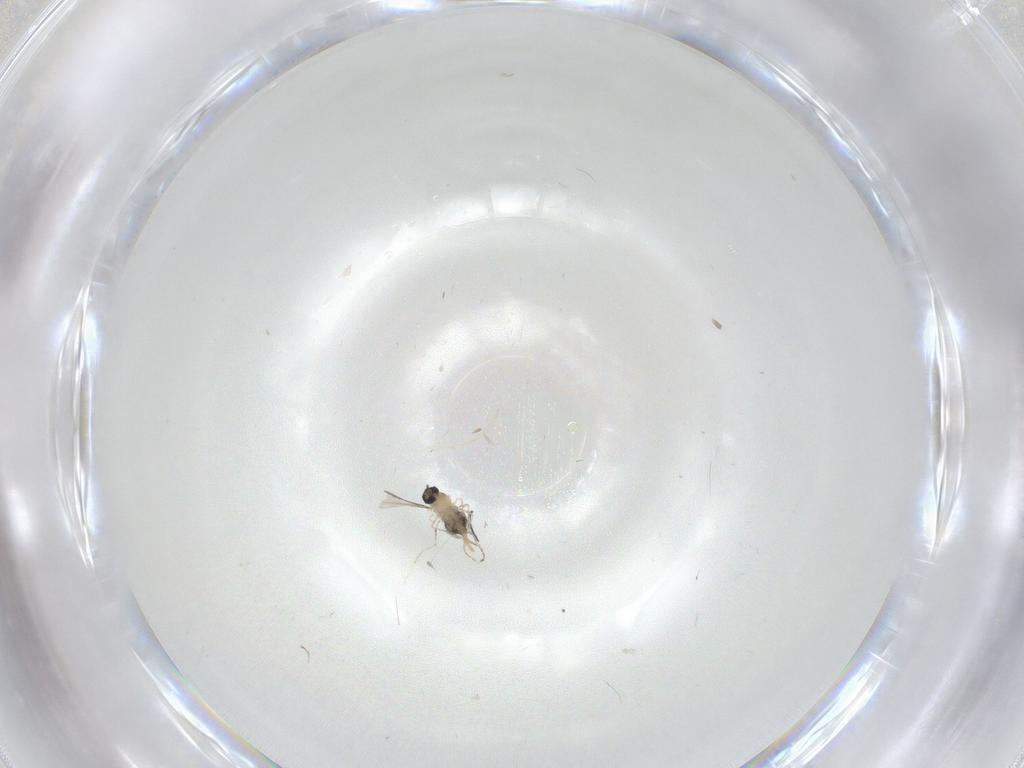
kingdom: Animalia
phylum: Arthropoda
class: Insecta
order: Diptera
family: Cecidomyiidae
